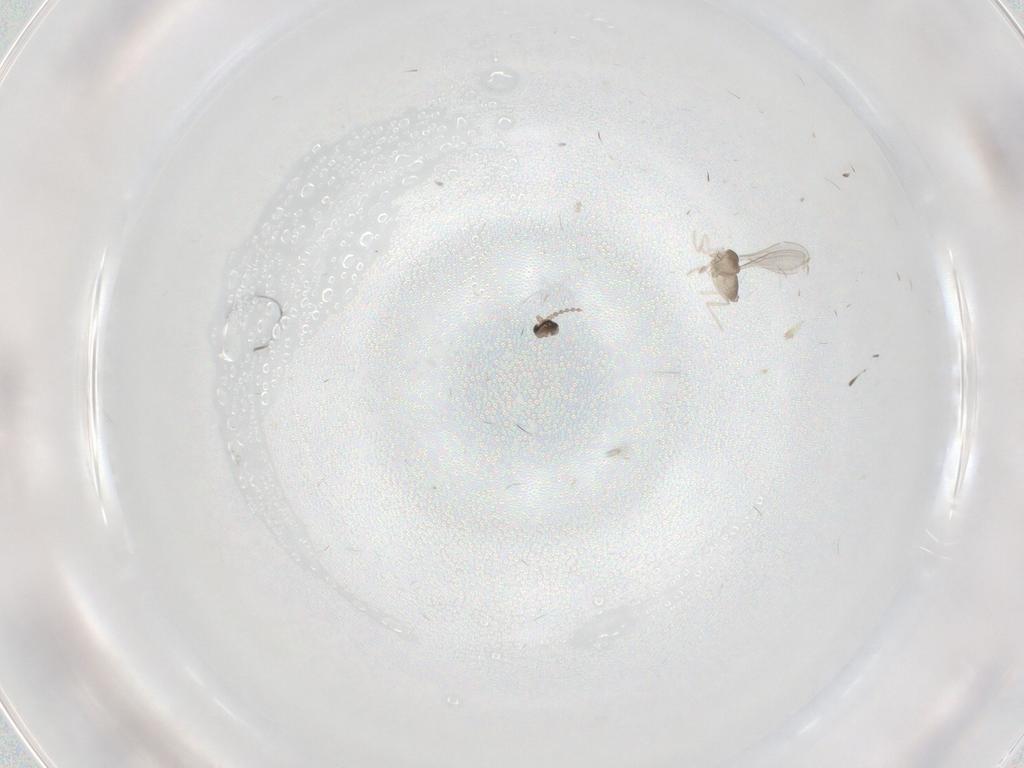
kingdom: Animalia
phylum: Arthropoda
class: Insecta
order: Diptera
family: Cecidomyiidae
